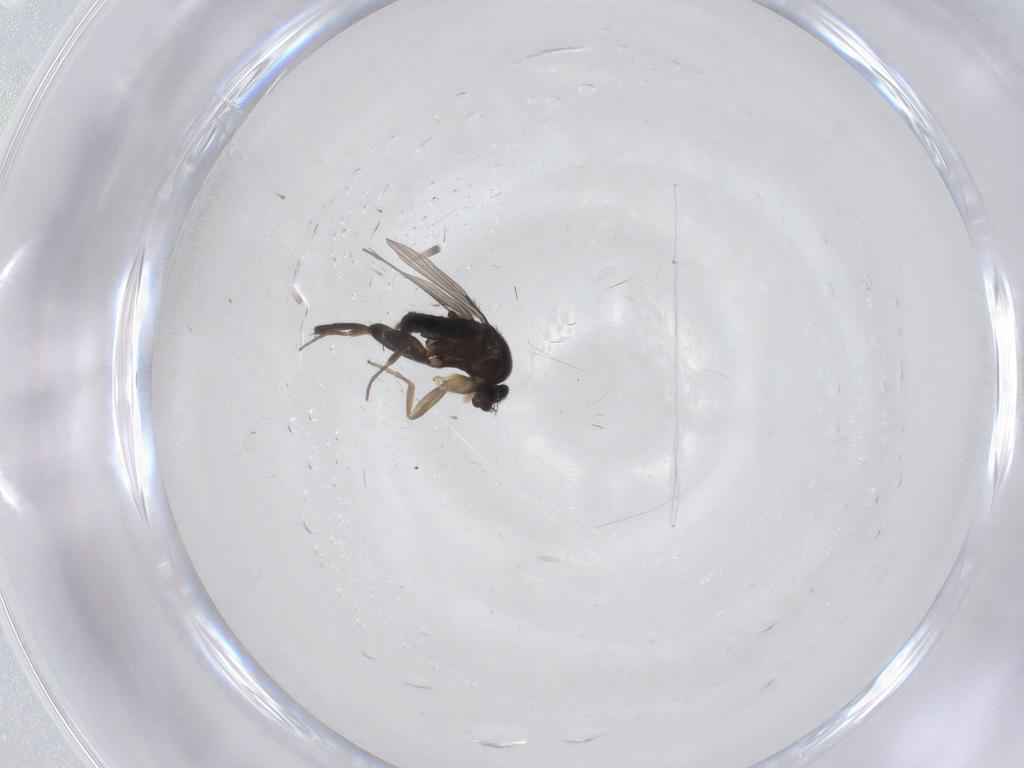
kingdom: Animalia
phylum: Arthropoda
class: Insecta
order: Diptera
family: Phoridae
